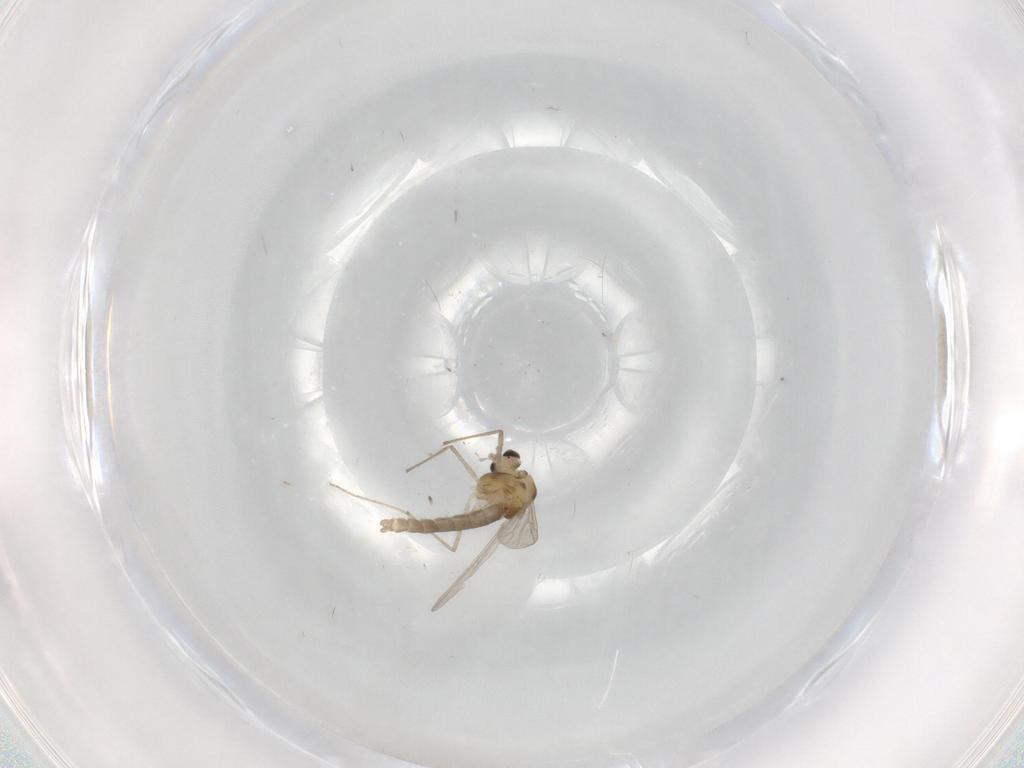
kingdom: Animalia
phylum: Arthropoda
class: Insecta
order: Diptera
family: Chironomidae
